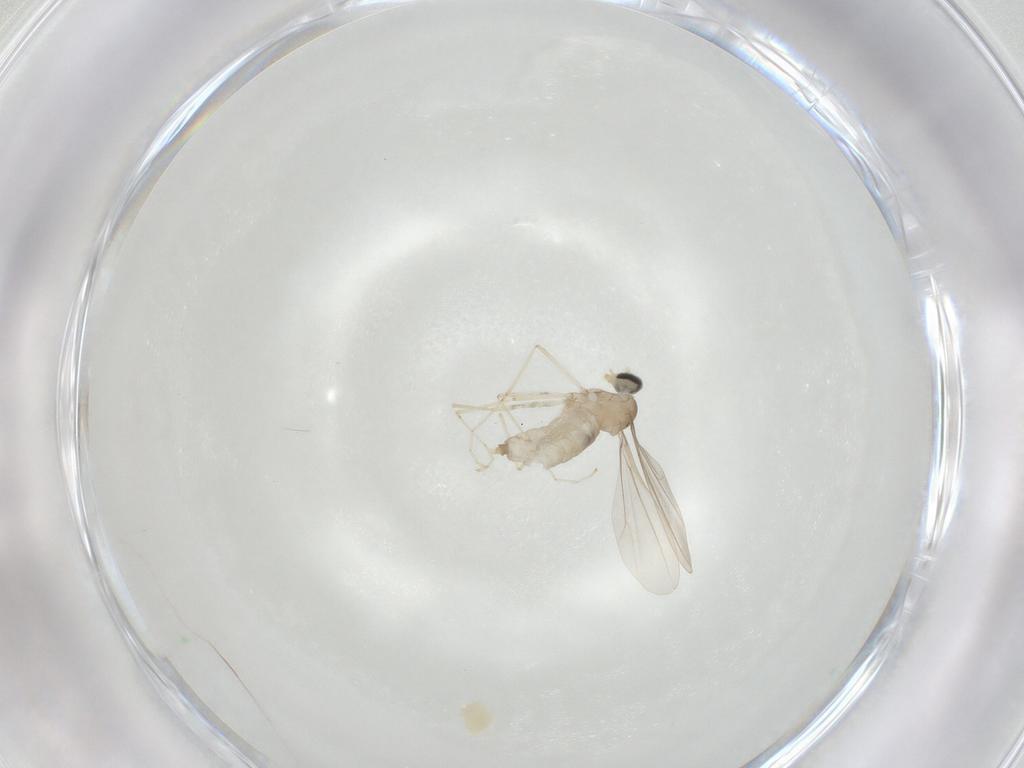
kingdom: Animalia
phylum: Arthropoda
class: Insecta
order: Diptera
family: Cecidomyiidae
